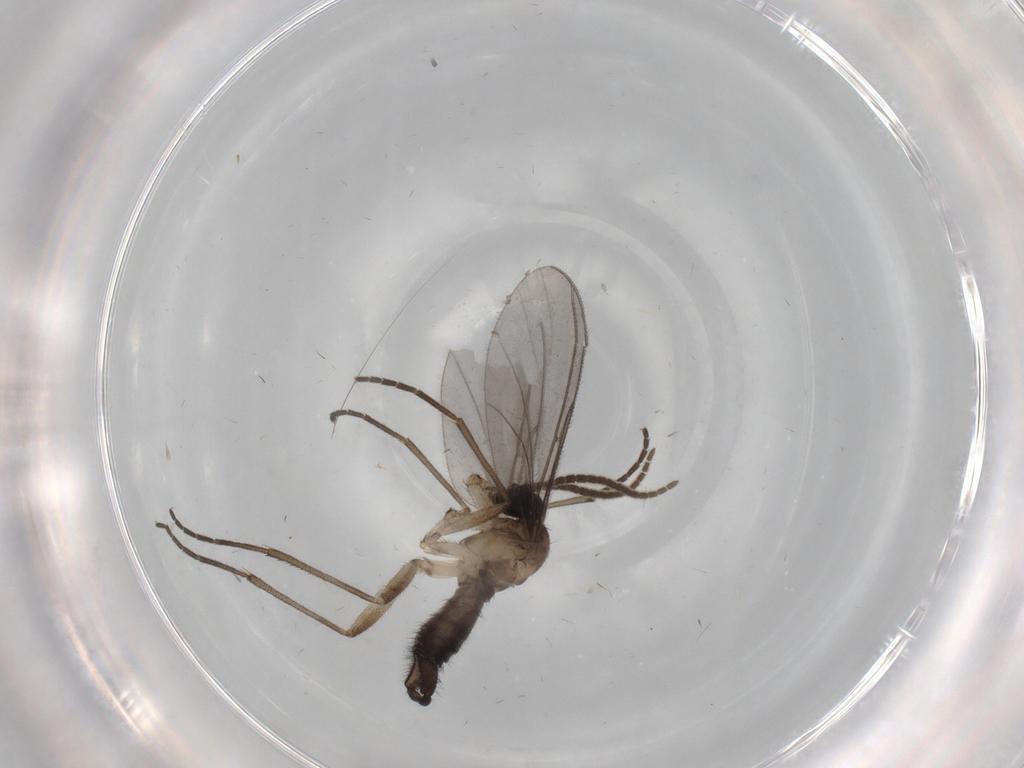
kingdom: Animalia
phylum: Arthropoda
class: Insecta
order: Diptera
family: Sciaridae
